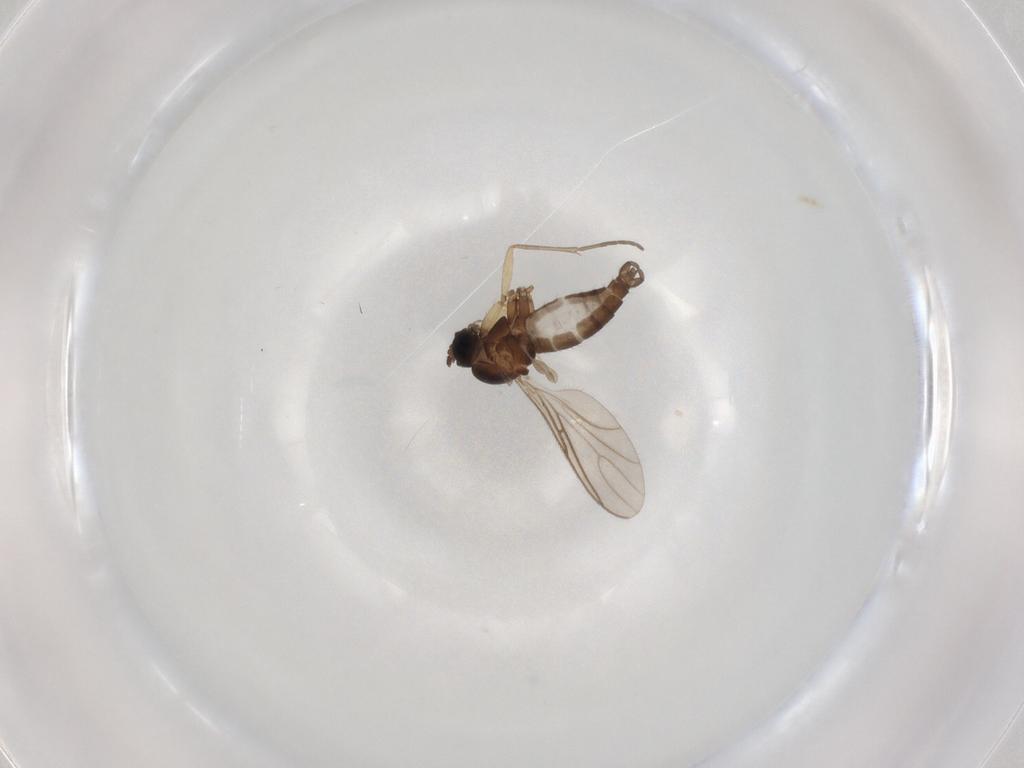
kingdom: Animalia
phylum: Arthropoda
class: Insecta
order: Diptera
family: Sciaridae
